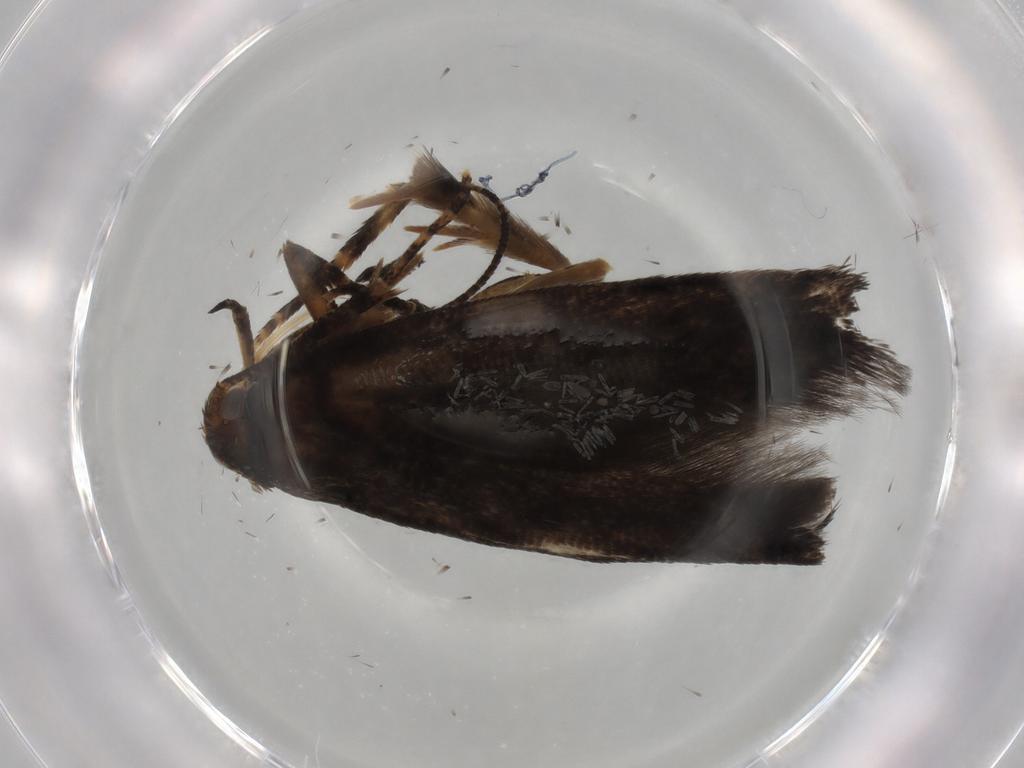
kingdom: Animalia
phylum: Arthropoda
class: Insecta
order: Lepidoptera
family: Gelechiidae
